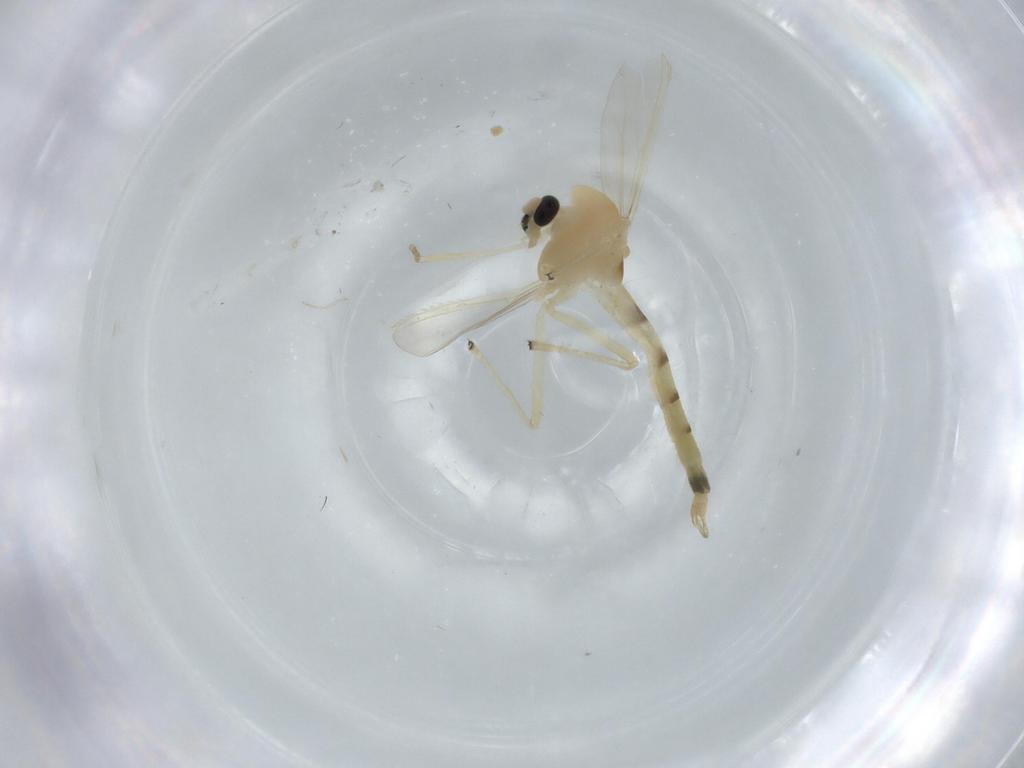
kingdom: Animalia
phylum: Arthropoda
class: Insecta
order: Diptera
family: Chironomidae
